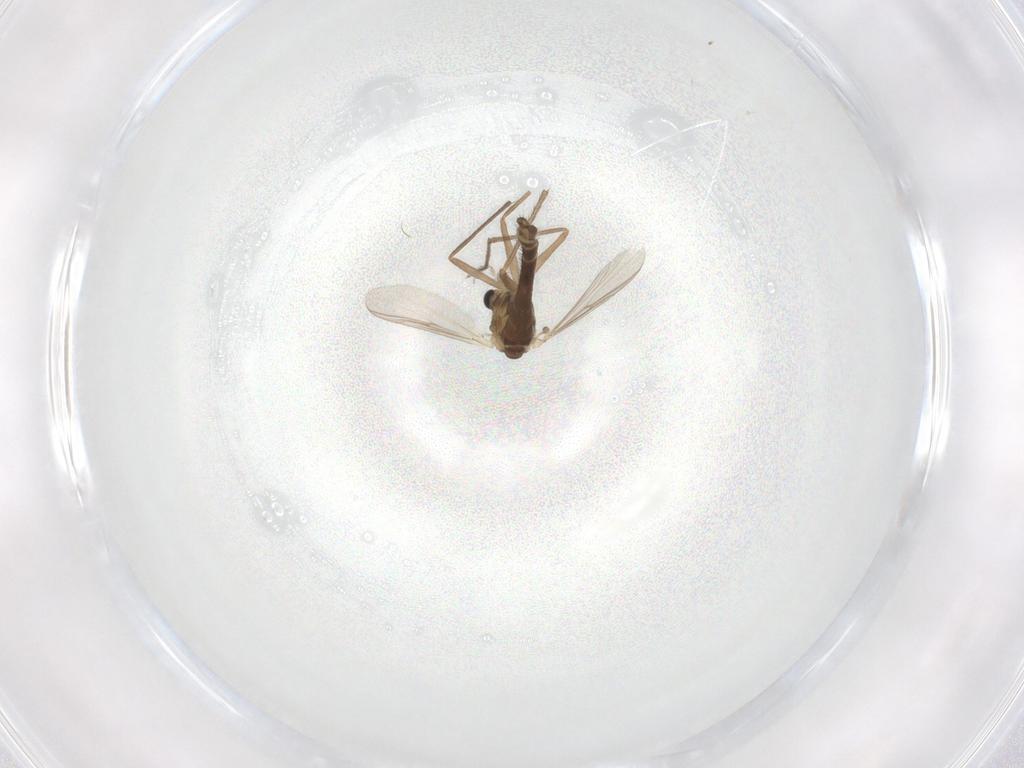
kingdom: Animalia
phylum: Arthropoda
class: Insecta
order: Diptera
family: Chironomidae
